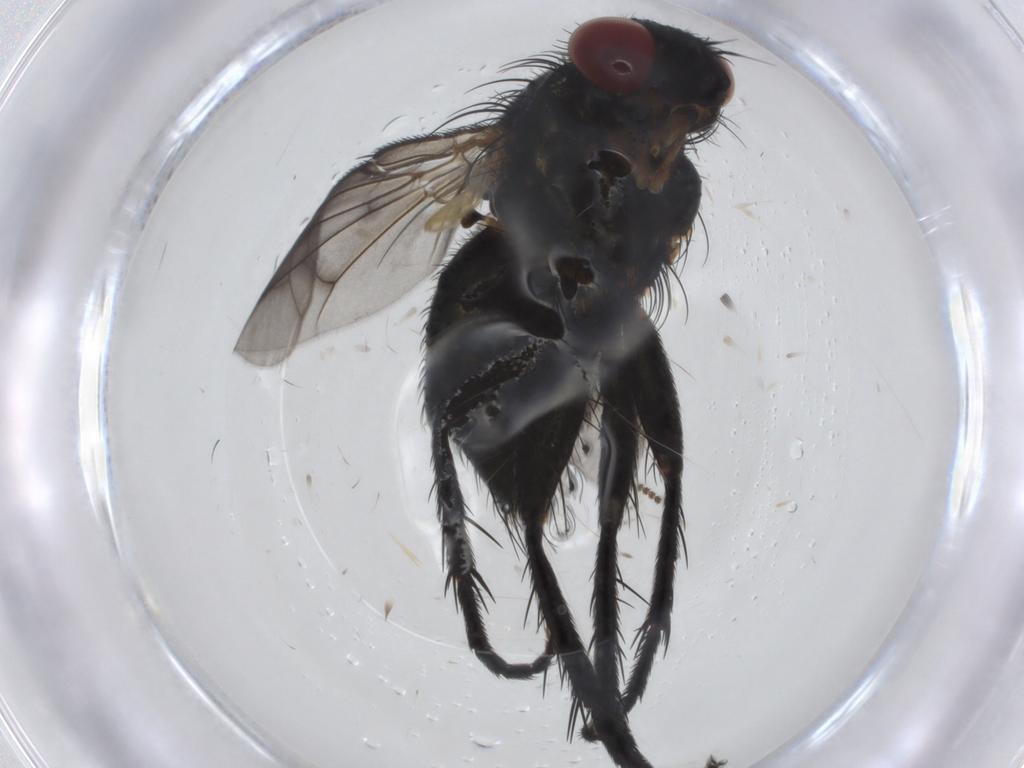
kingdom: Animalia
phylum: Arthropoda
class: Insecta
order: Diptera
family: Tachinidae
